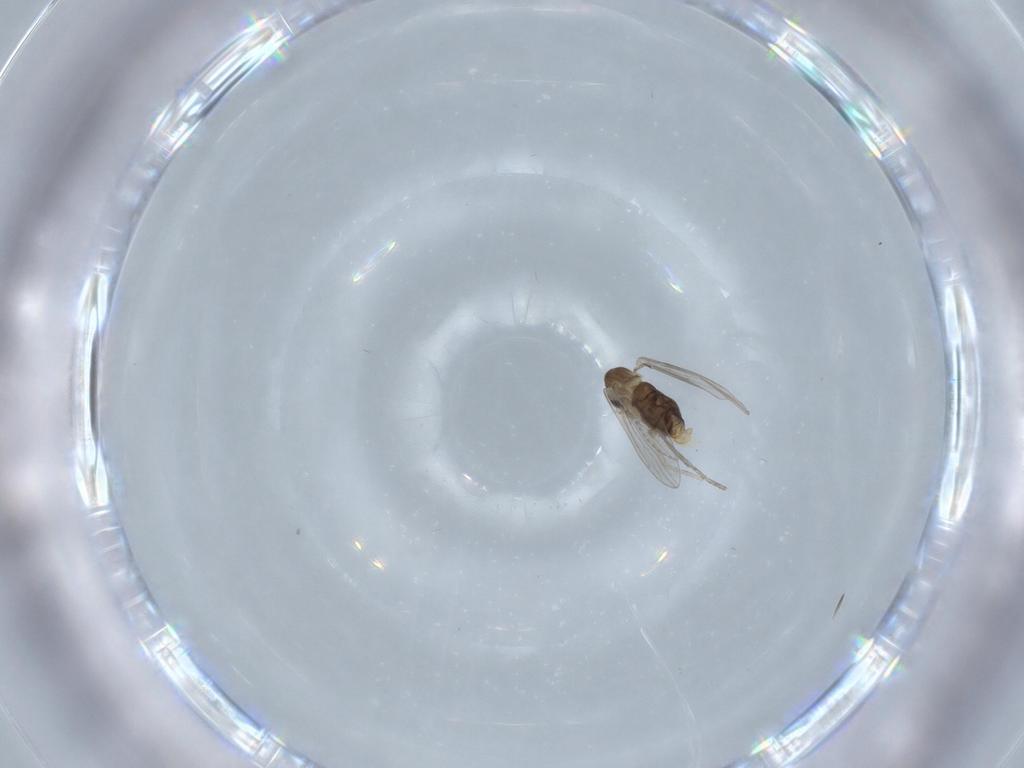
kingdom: Animalia
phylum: Arthropoda
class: Insecta
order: Diptera
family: Psychodidae
